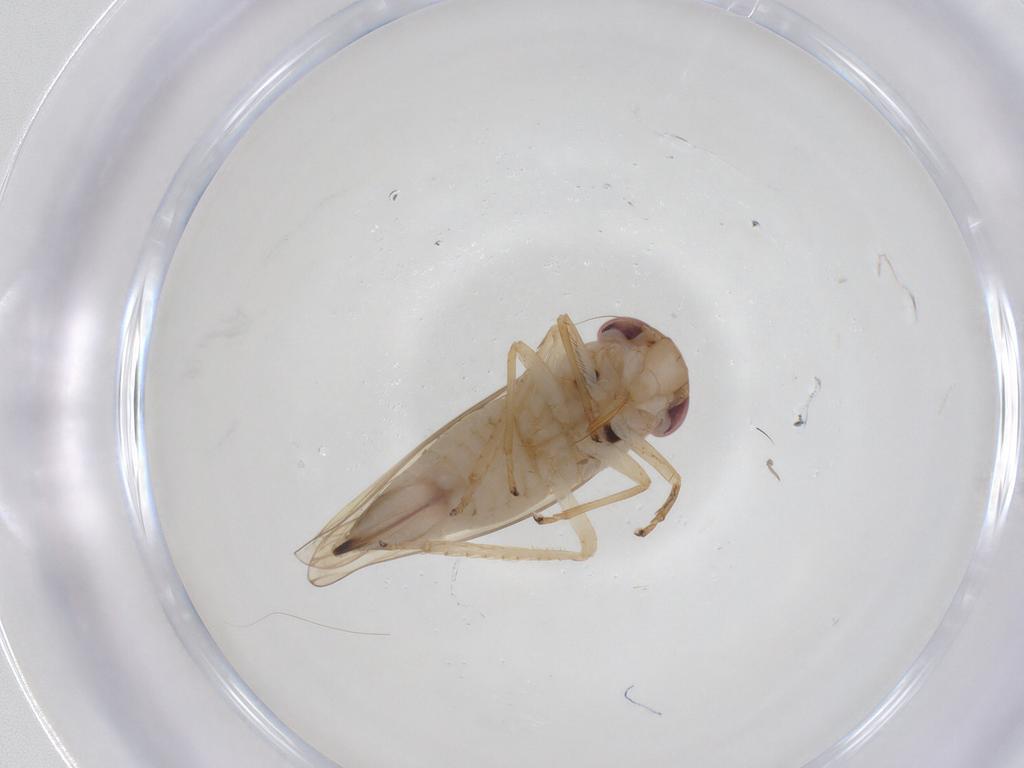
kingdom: Animalia
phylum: Arthropoda
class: Insecta
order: Hemiptera
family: Cicadellidae
